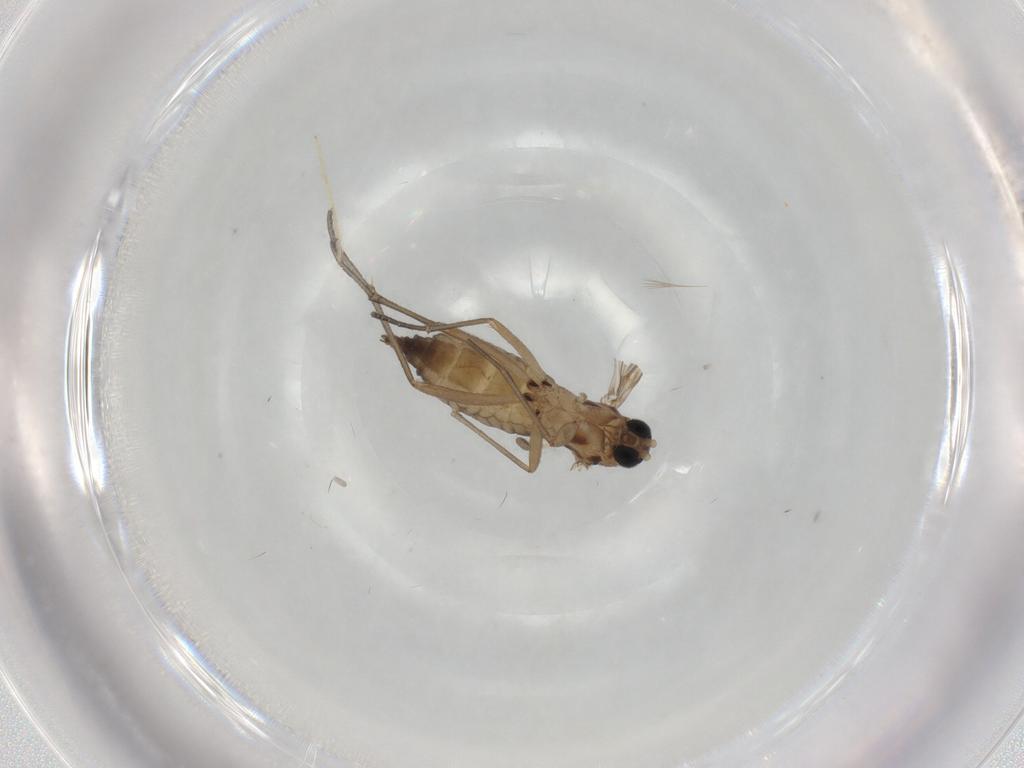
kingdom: Animalia
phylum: Arthropoda
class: Insecta
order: Diptera
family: Sciaridae
